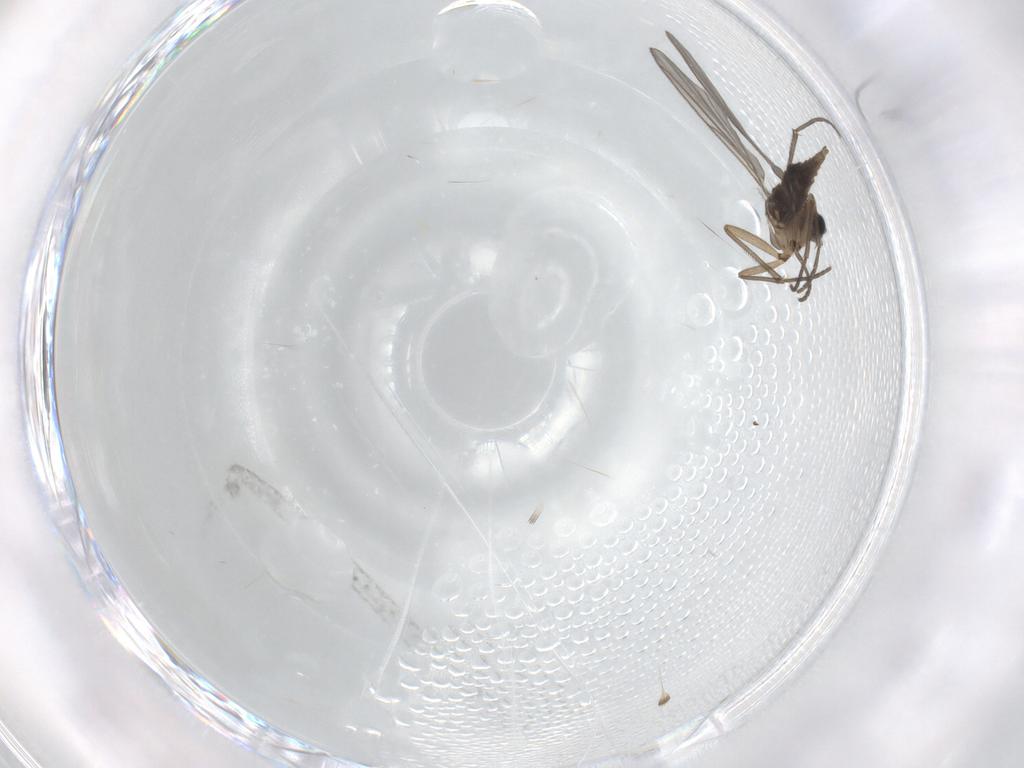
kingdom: Animalia
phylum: Arthropoda
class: Insecta
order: Diptera
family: Sciaridae
